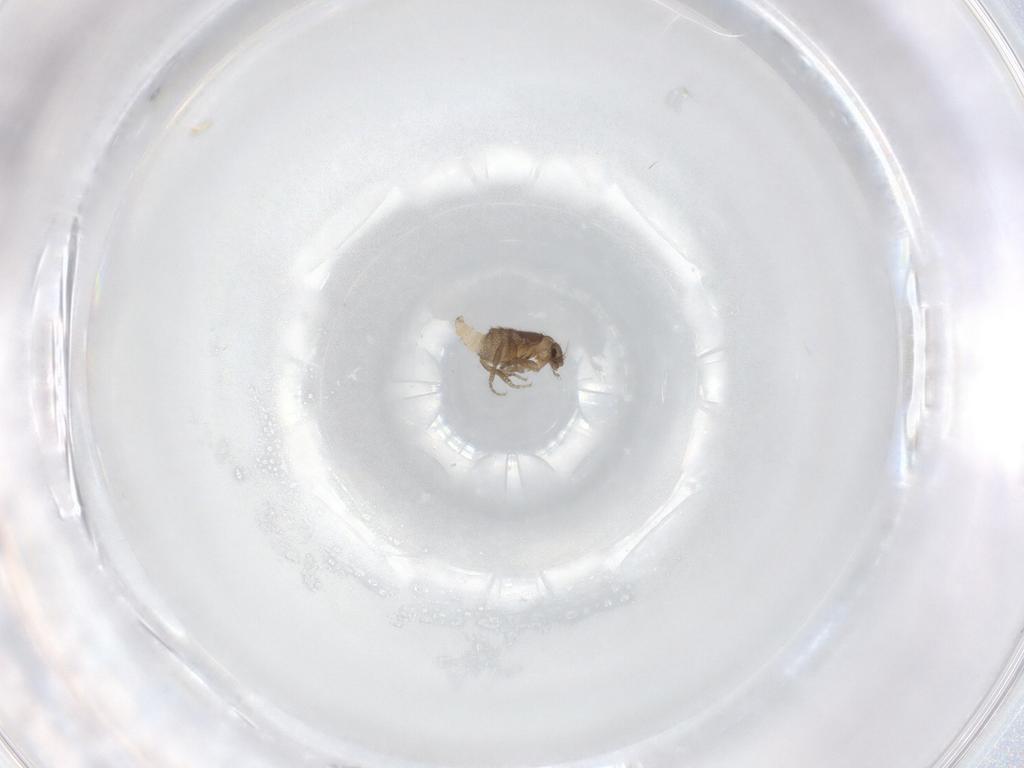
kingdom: Animalia
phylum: Arthropoda
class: Insecta
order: Diptera
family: Phoridae
